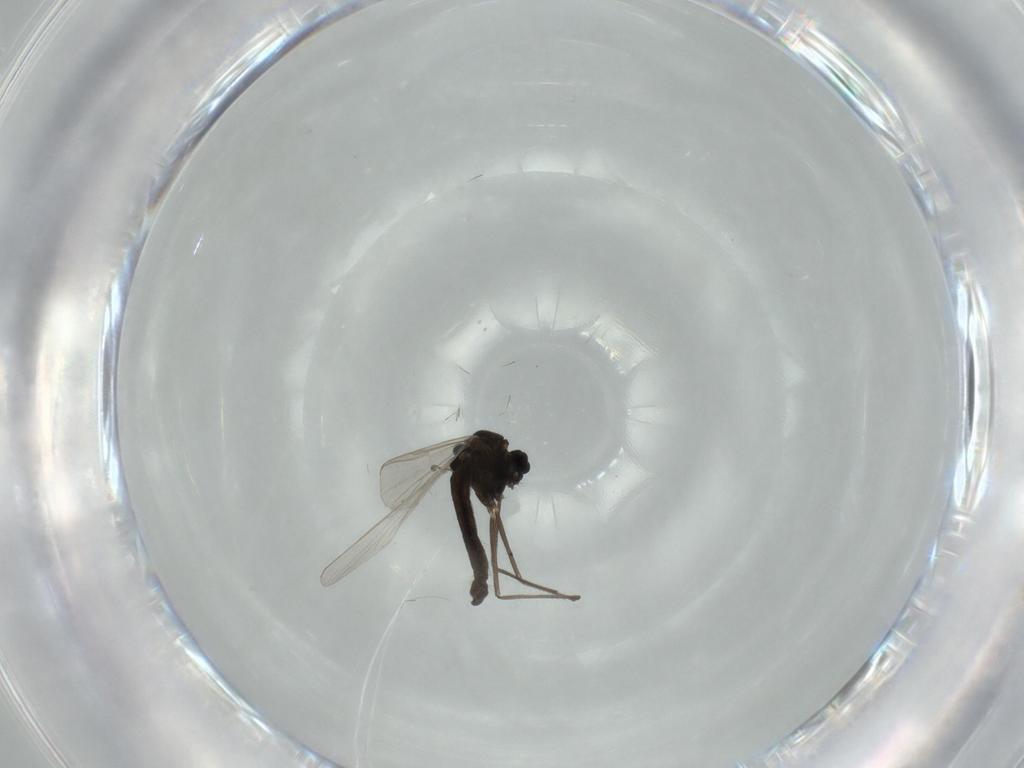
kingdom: Animalia
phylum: Arthropoda
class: Insecta
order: Diptera
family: Chironomidae
